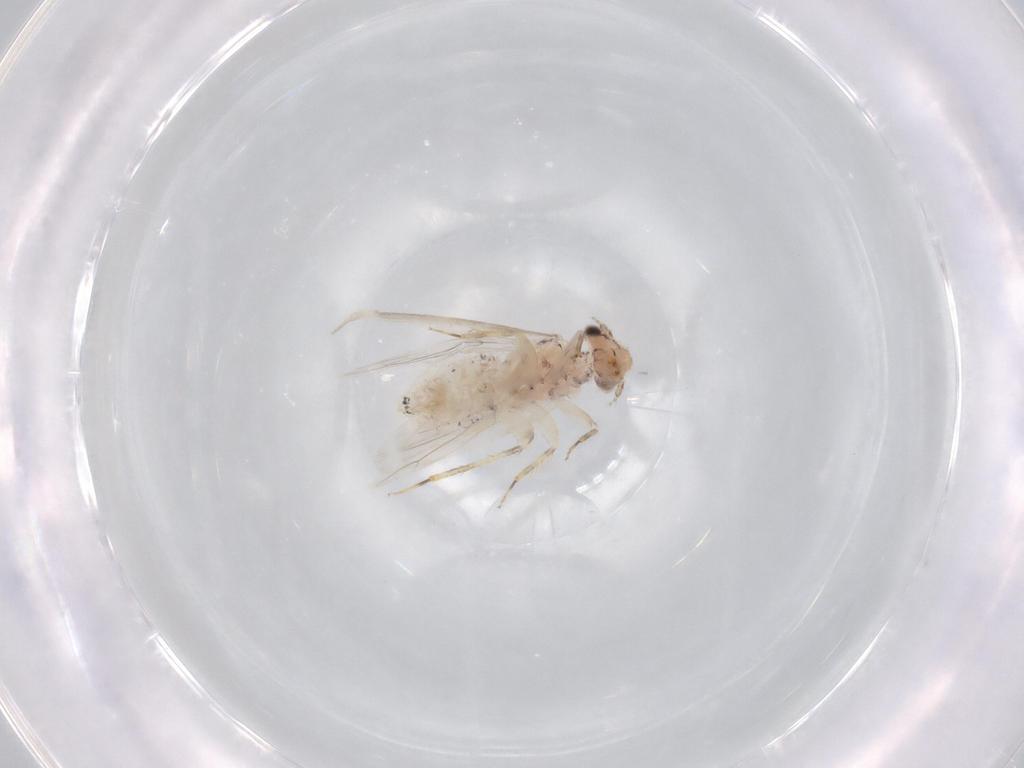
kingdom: Animalia
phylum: Arthropoda
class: Insecta
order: Psocodea
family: Lepidopsocidae
